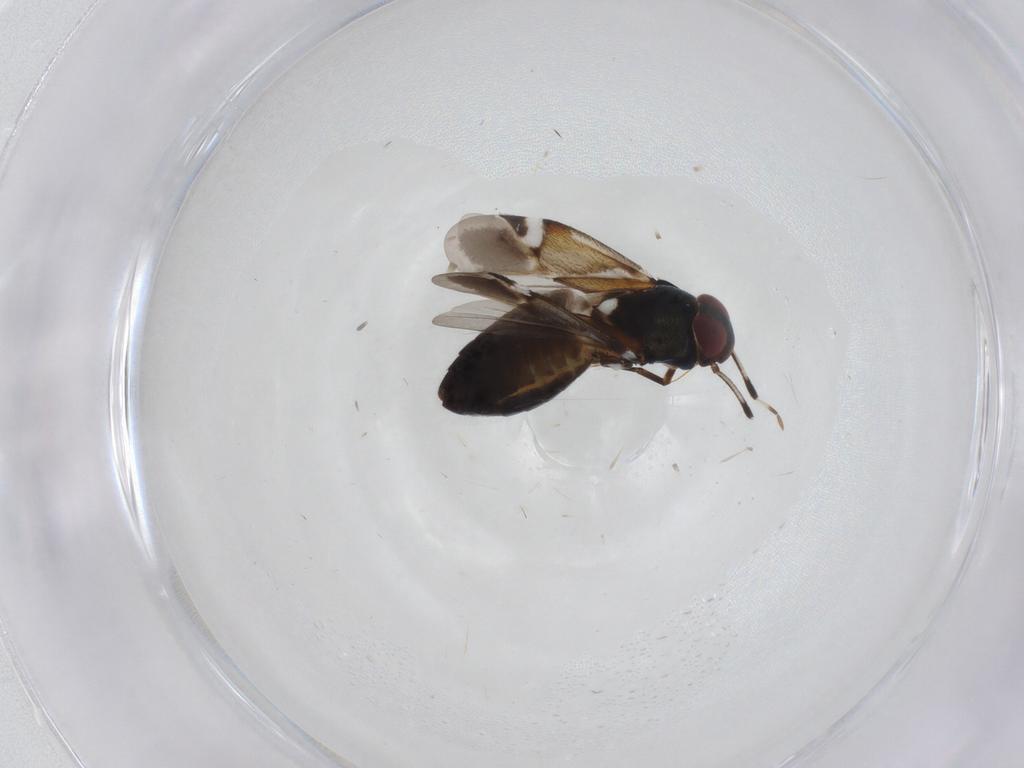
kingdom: Animalia
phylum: Arthropoda
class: Insecta
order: Hemiptera
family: Miridae
